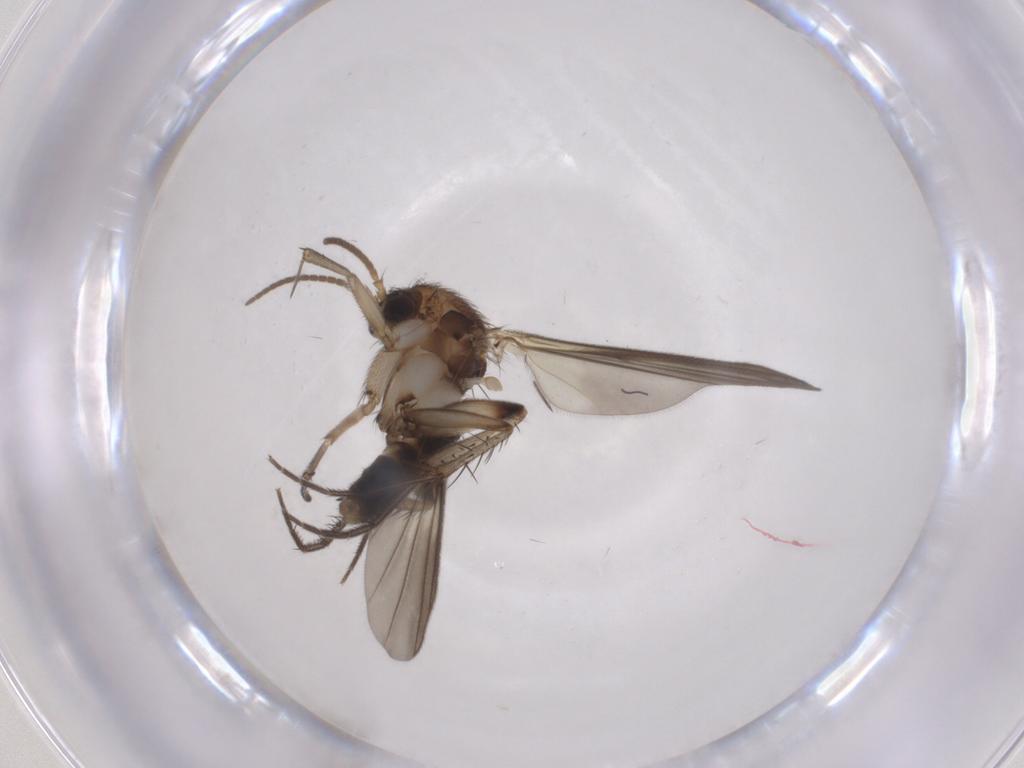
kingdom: Animalia
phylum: Arthropoda
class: Insecta
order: Diptera
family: Mycetophilidae
